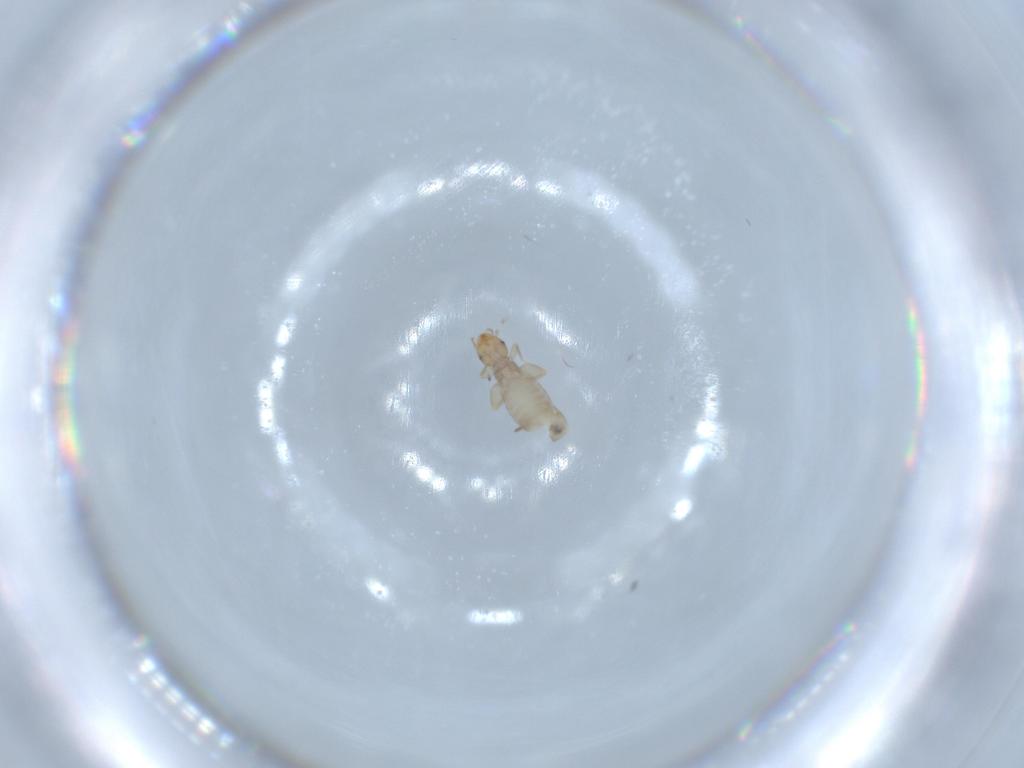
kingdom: Animalia
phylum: Arthropoda
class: Insecta
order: Psocodea
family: Liposcelididae
